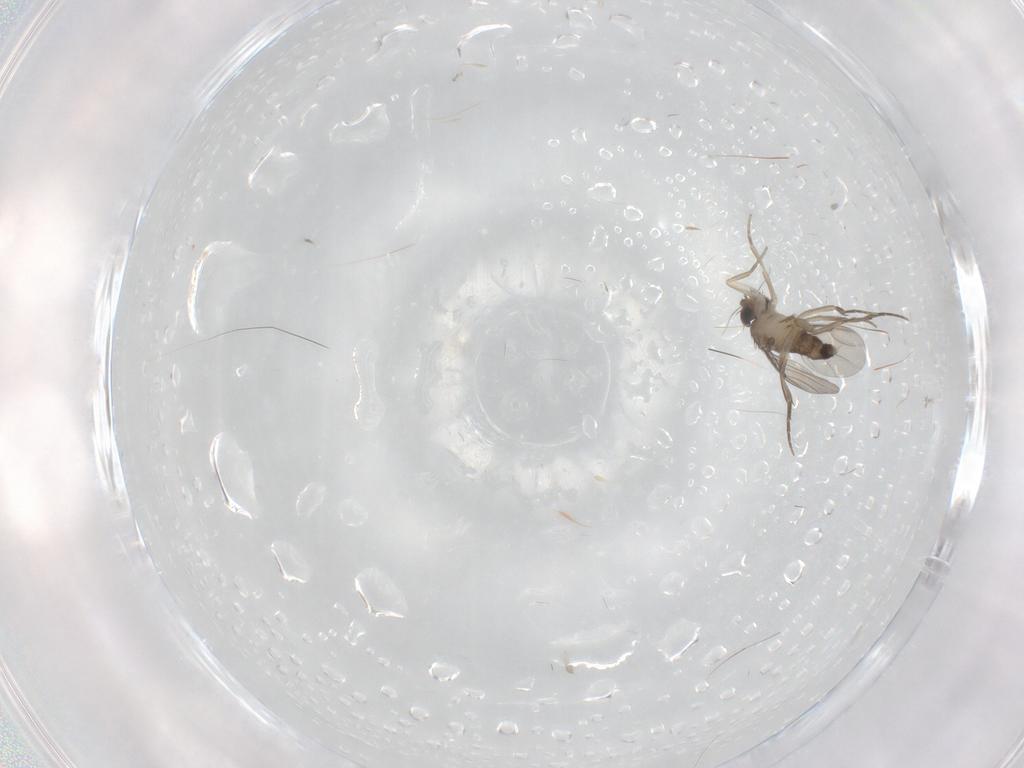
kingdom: Animalia
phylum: Arthropoda
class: Insecta
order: Diptera
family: Phoridae
